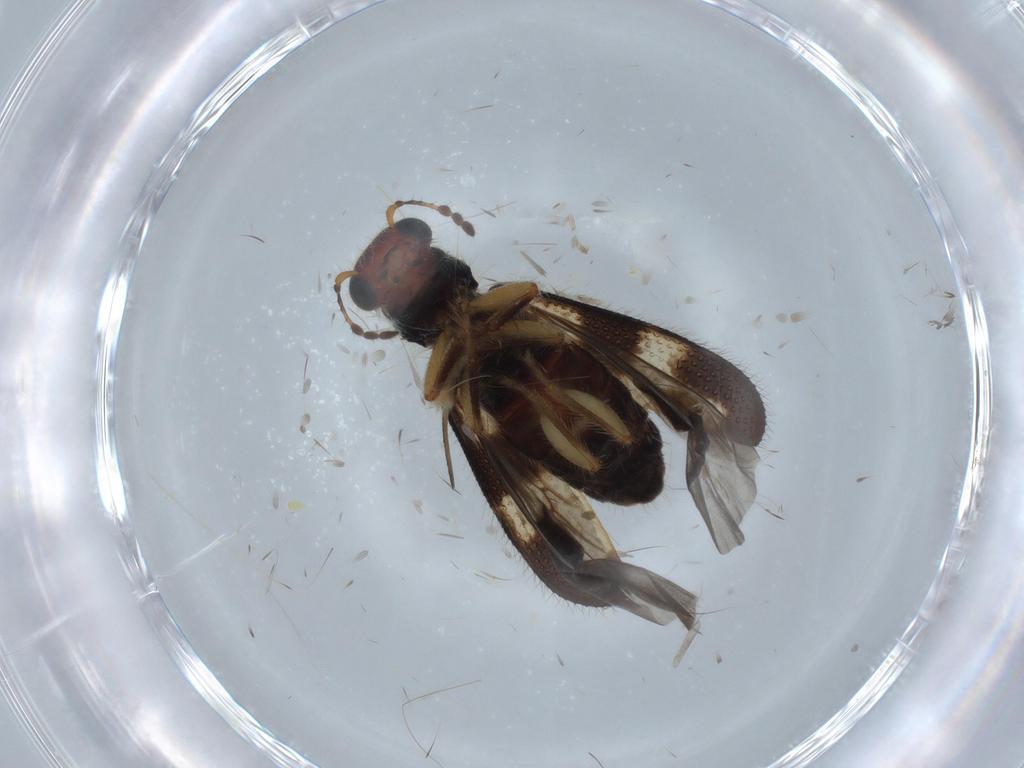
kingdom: Animalia
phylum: Arthropoda
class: Insecta
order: Coleoptera
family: Cleridae
